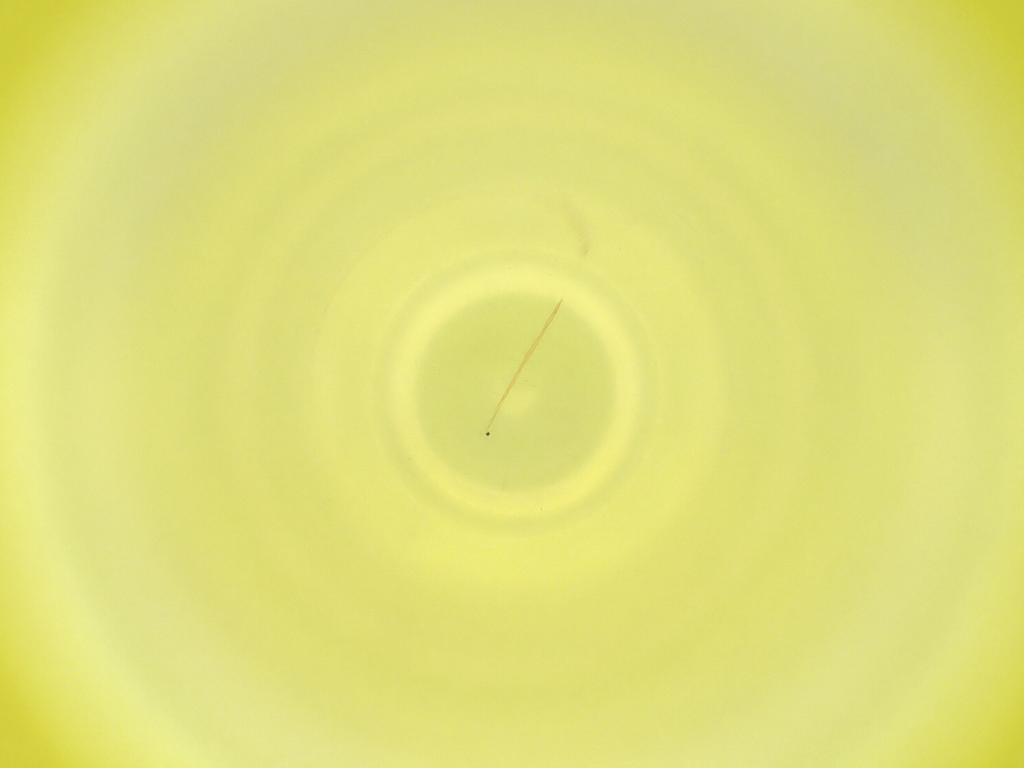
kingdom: Animalia
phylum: Arthropoda
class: Insecta
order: Diptera
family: Cecidomyiidae
